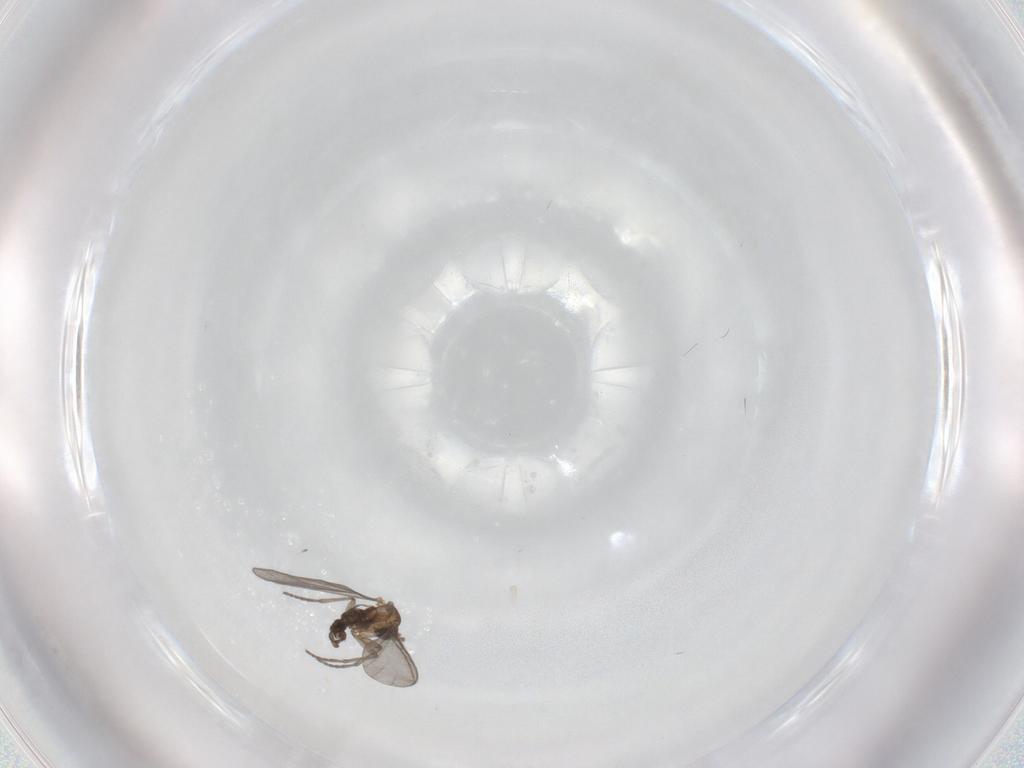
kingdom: Animalia
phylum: Arthropoda
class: Insecta
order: Diptera
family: Sciaridae
